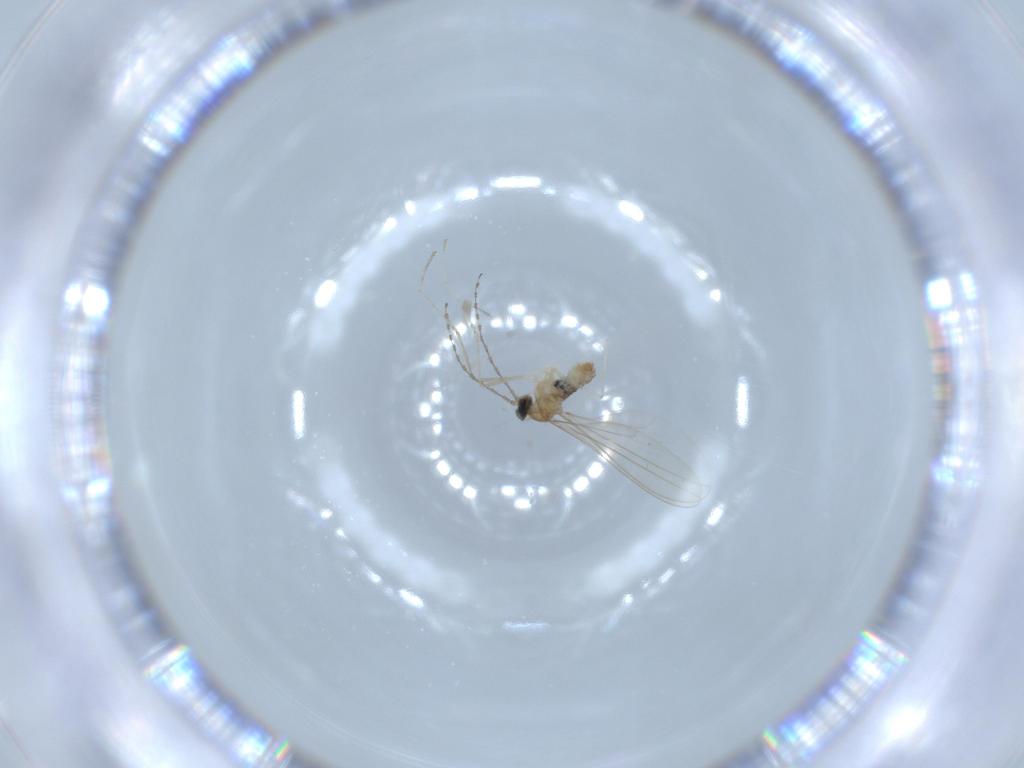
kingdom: Animalia
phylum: Arthropoda
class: Insecta
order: Diptera
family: Cecidomyiidae
